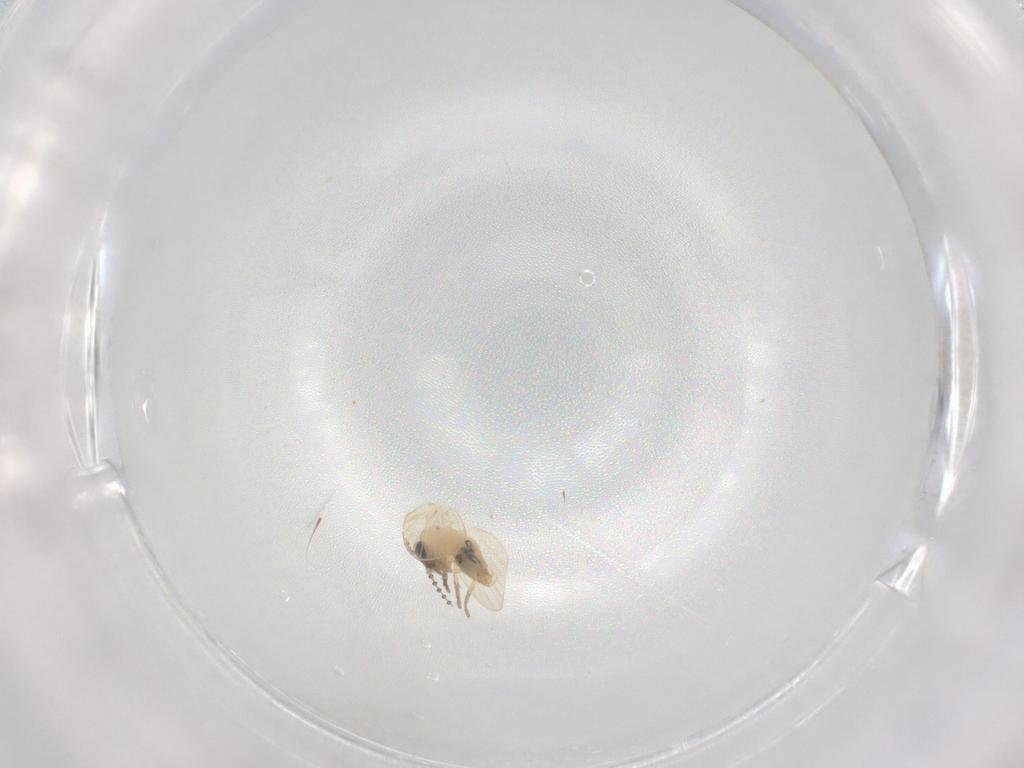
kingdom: Animalia
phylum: Arthropoda
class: Insecta
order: Diptera
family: Psychodidae
